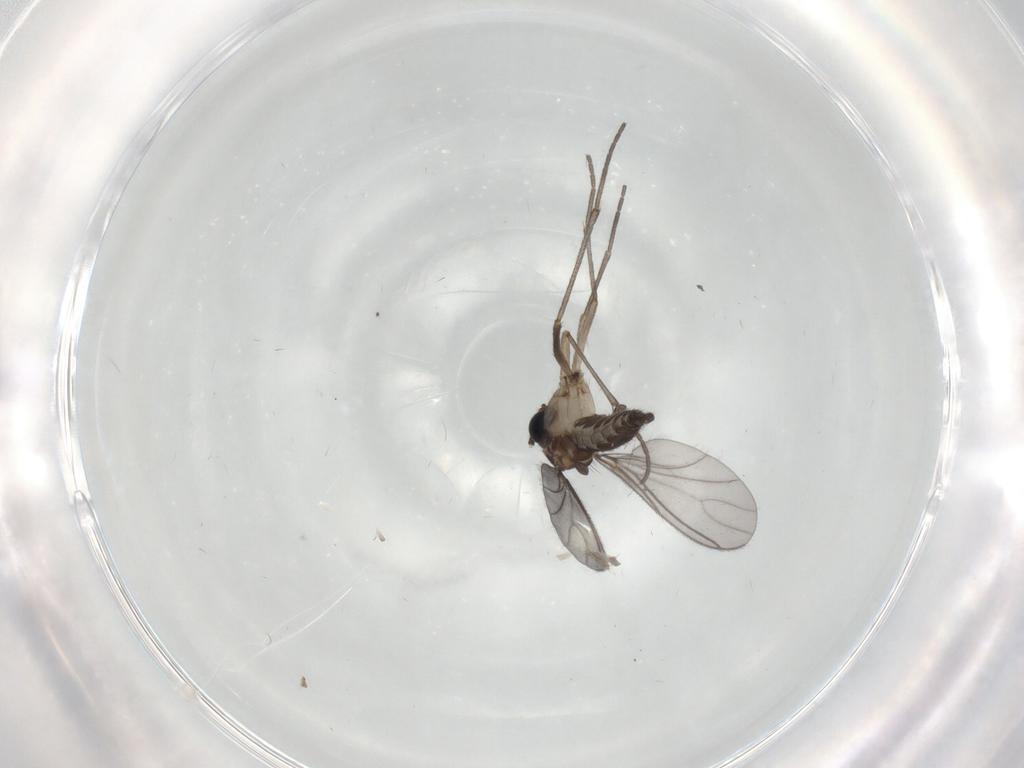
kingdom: Animalia
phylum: Arthropoda
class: Insecta
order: Diptera
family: Sciaridae
